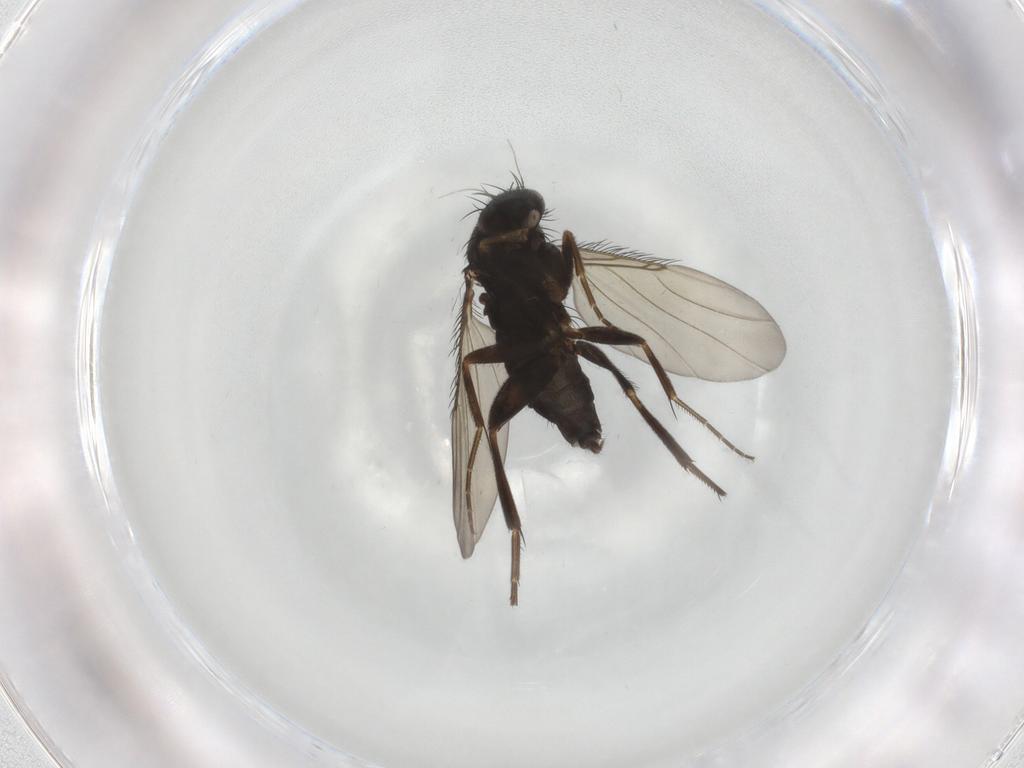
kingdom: Animalia
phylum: Arthropoda
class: Insecta
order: Diptera
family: Phoridae
